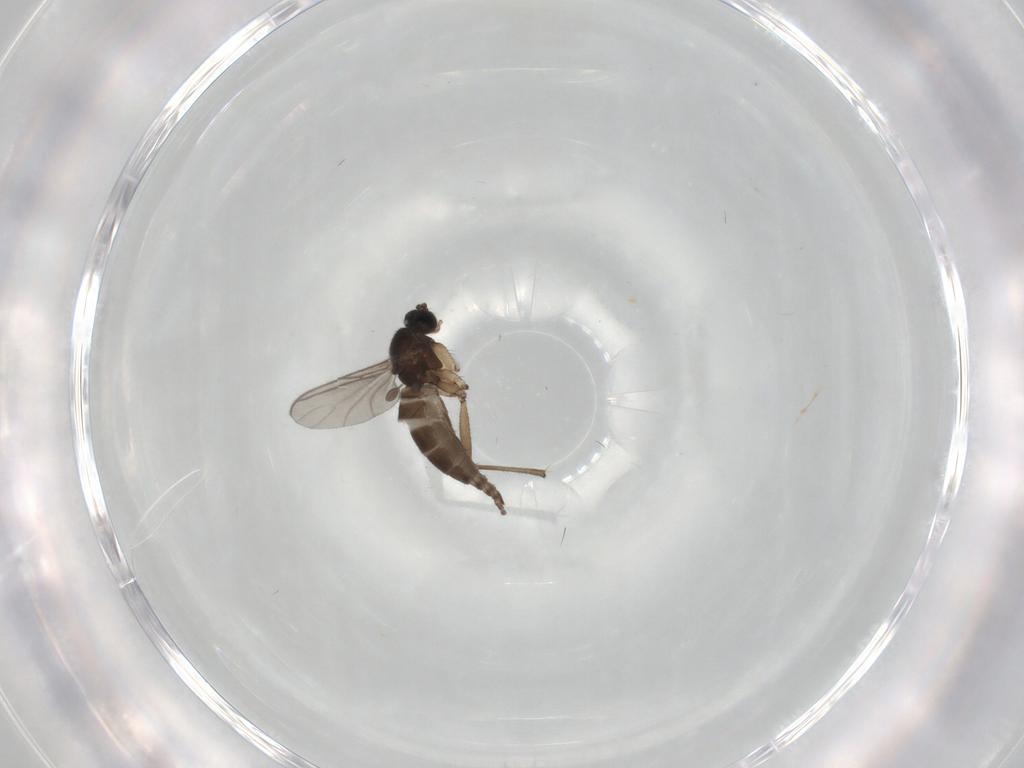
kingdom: Animalia
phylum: Arthropoda
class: Insecta
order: Diptera
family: Sciaridae
